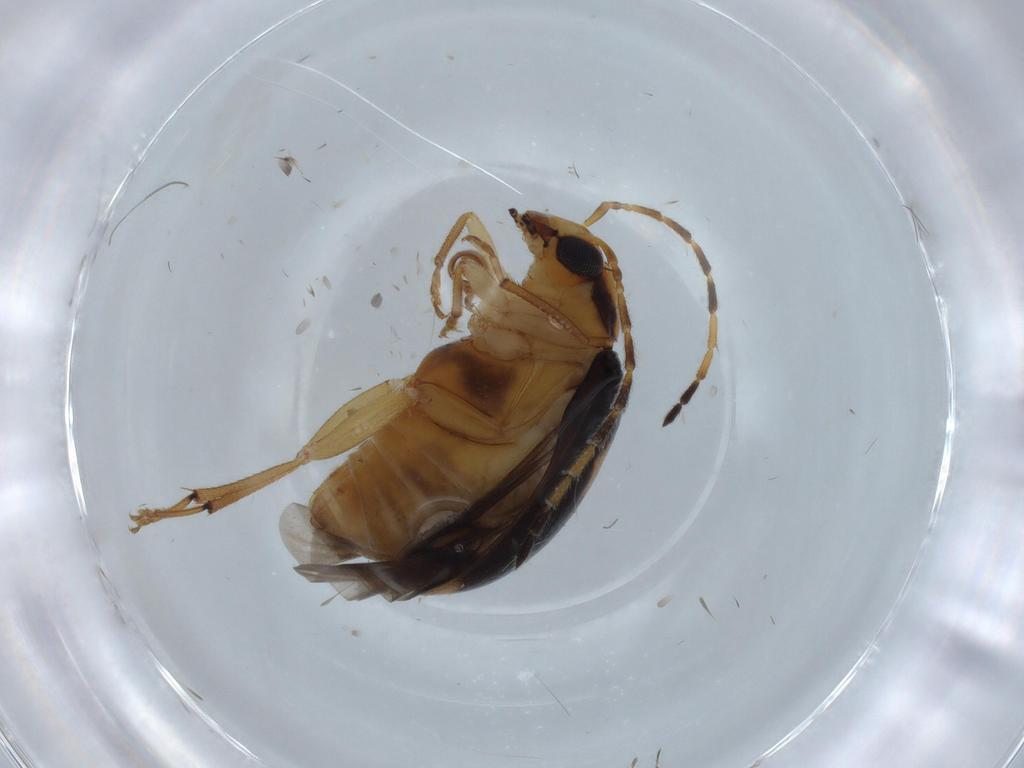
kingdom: Animalia
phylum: Arthropoda
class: Insecta
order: Coleoptera
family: Chrysomelidae
